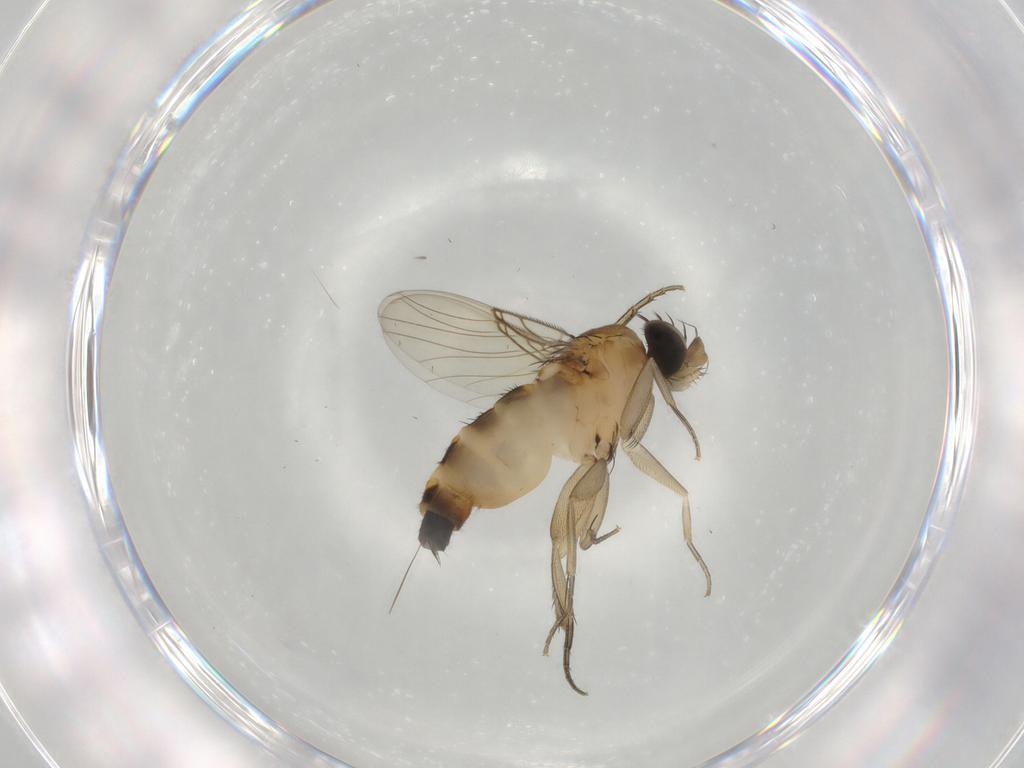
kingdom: Animalia
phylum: Arthropoda
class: Insecta
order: Diptera
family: Phoridae
